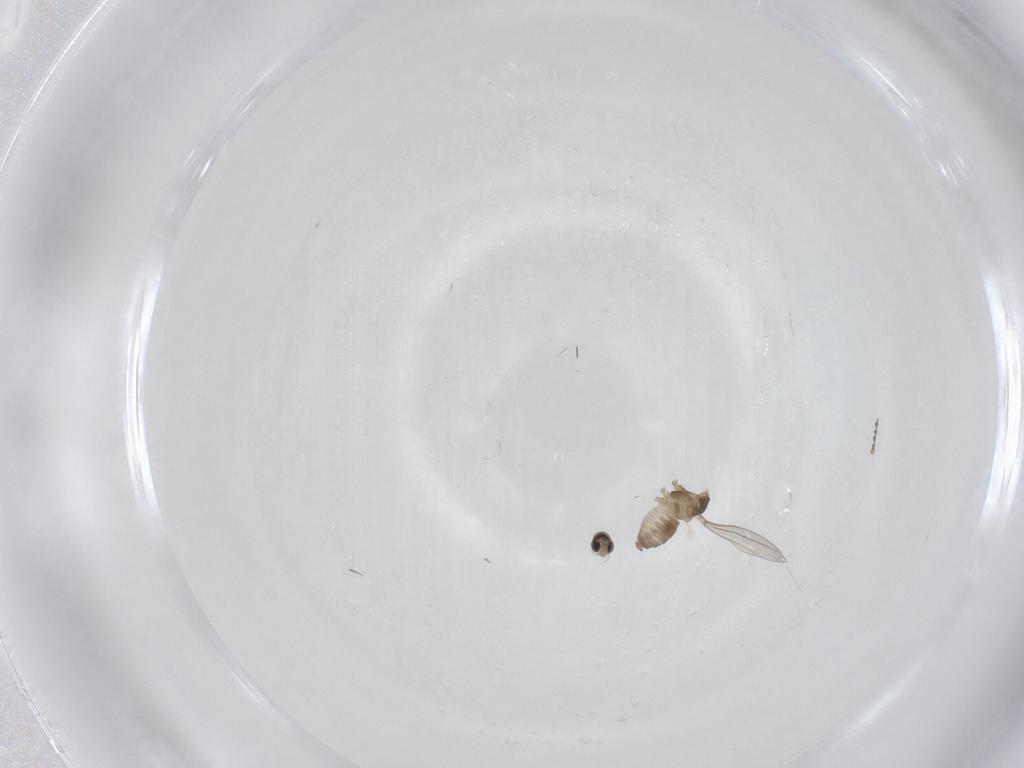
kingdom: Animalia
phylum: Arthropoda
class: Insecta
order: Diptera
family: Cecidomyiidae
